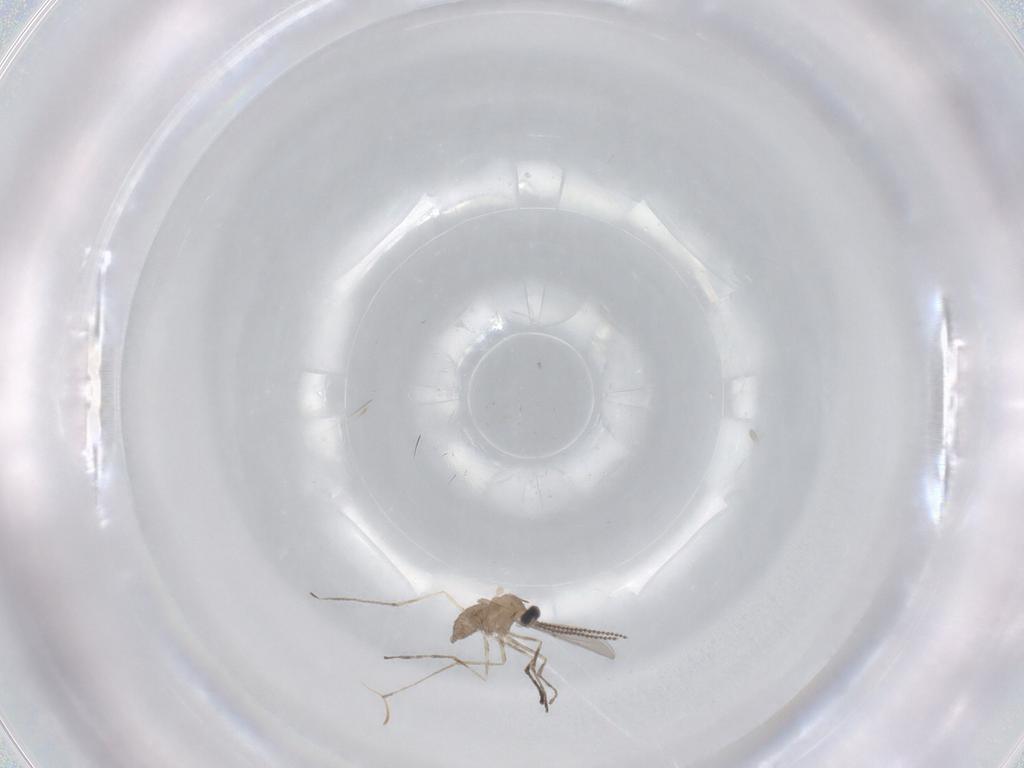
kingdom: Animalia
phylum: Arthropoda
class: Insecta
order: Diptera
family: Cecidomyiidae
